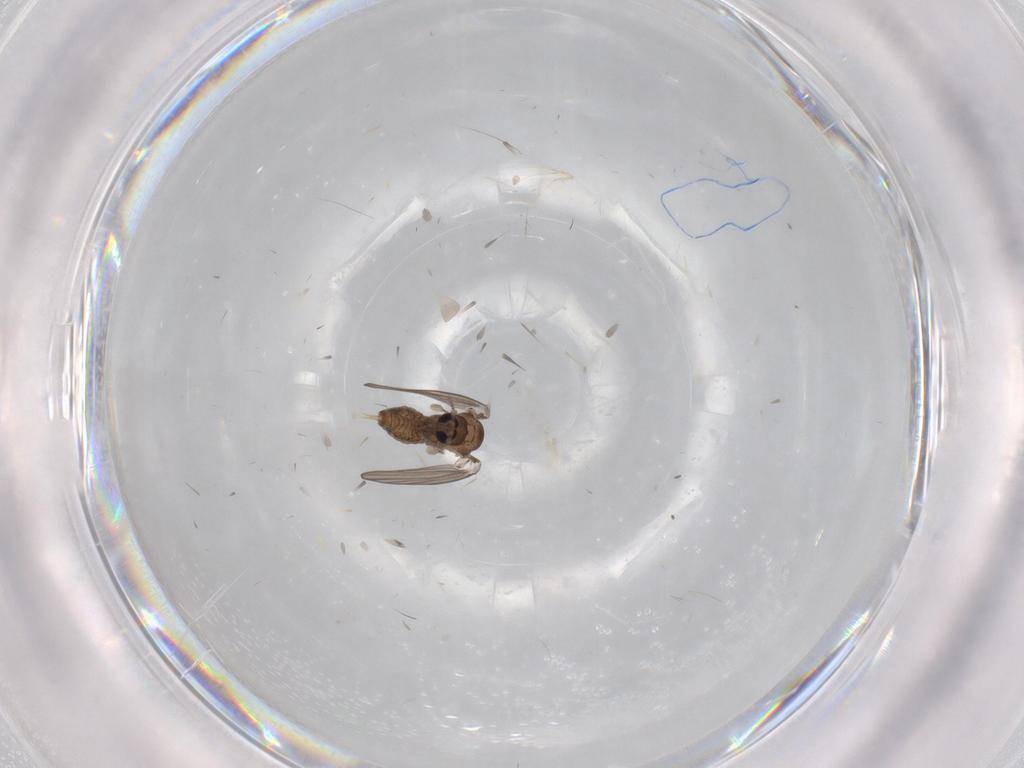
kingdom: Animalia
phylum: Arthropoda
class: Insecta
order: Diptera
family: Psychodidae
